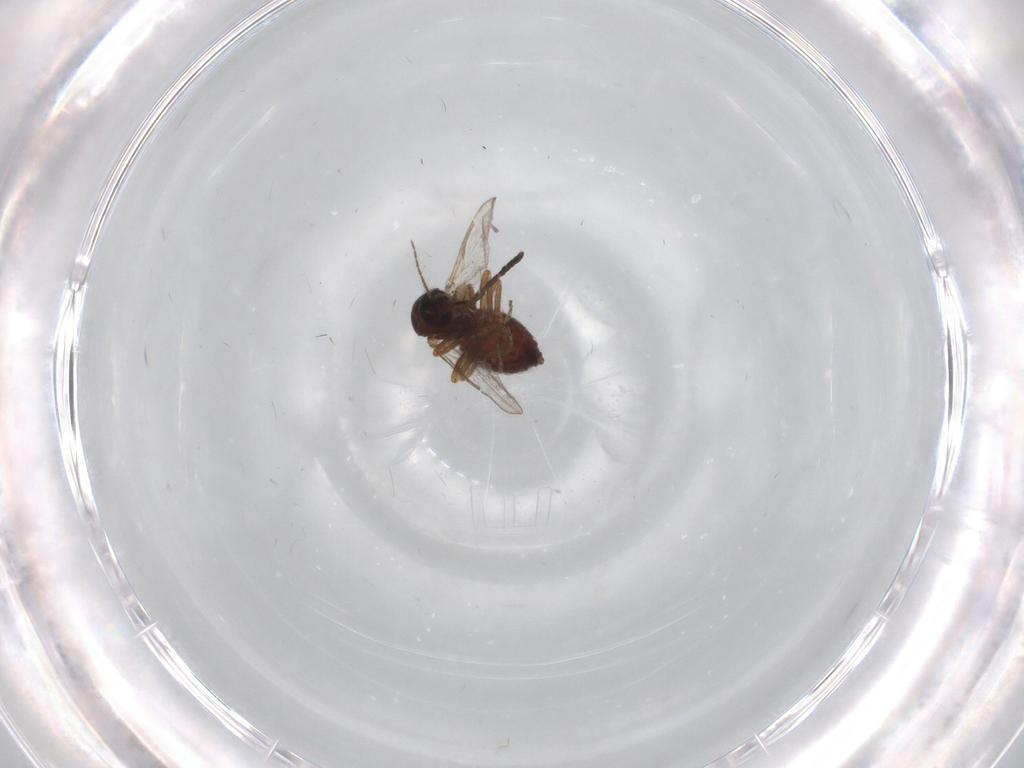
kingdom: Animalia
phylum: Arthropoda
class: Insecta
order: Diptera
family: Ceratopogonidae
